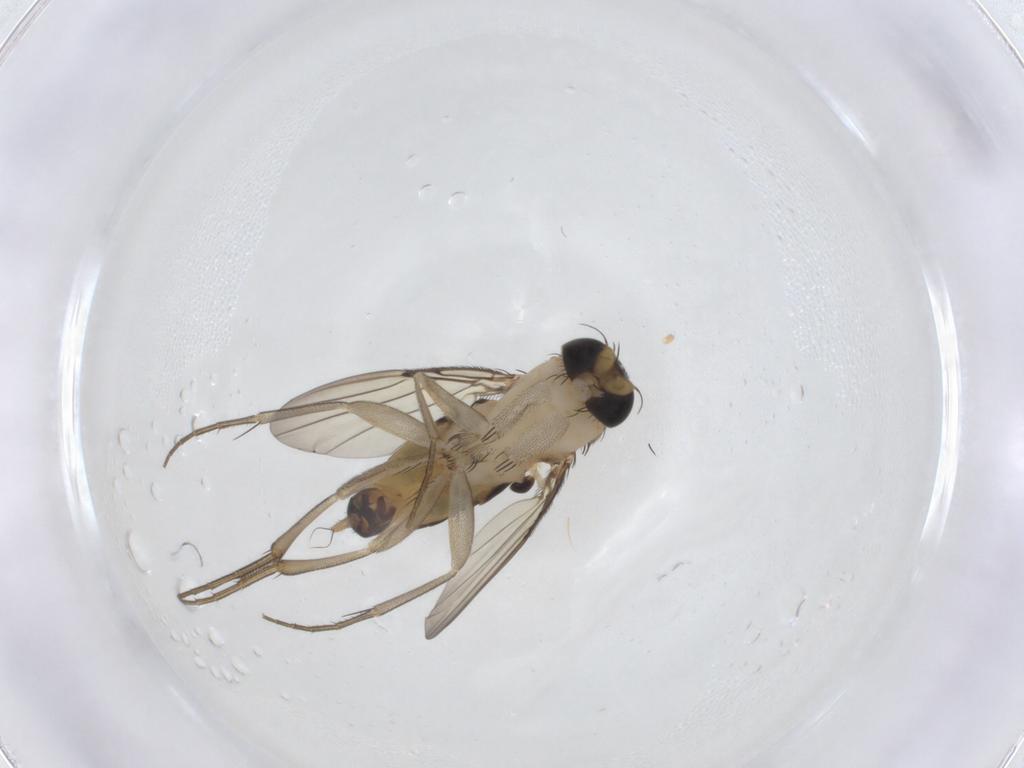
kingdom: Animalia
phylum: Arthropoda
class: Insecta
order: Diptera
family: Phoridae
